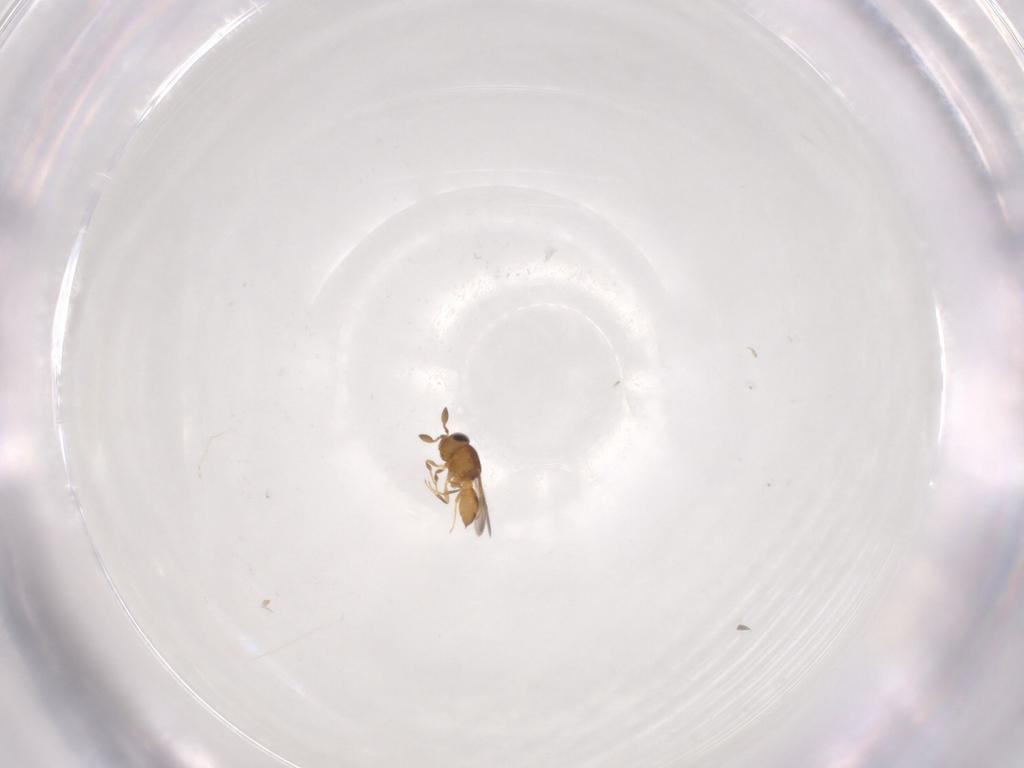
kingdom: Animalia
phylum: Arthropoda
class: Insecta
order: Hymenoptera
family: Scelionidae
